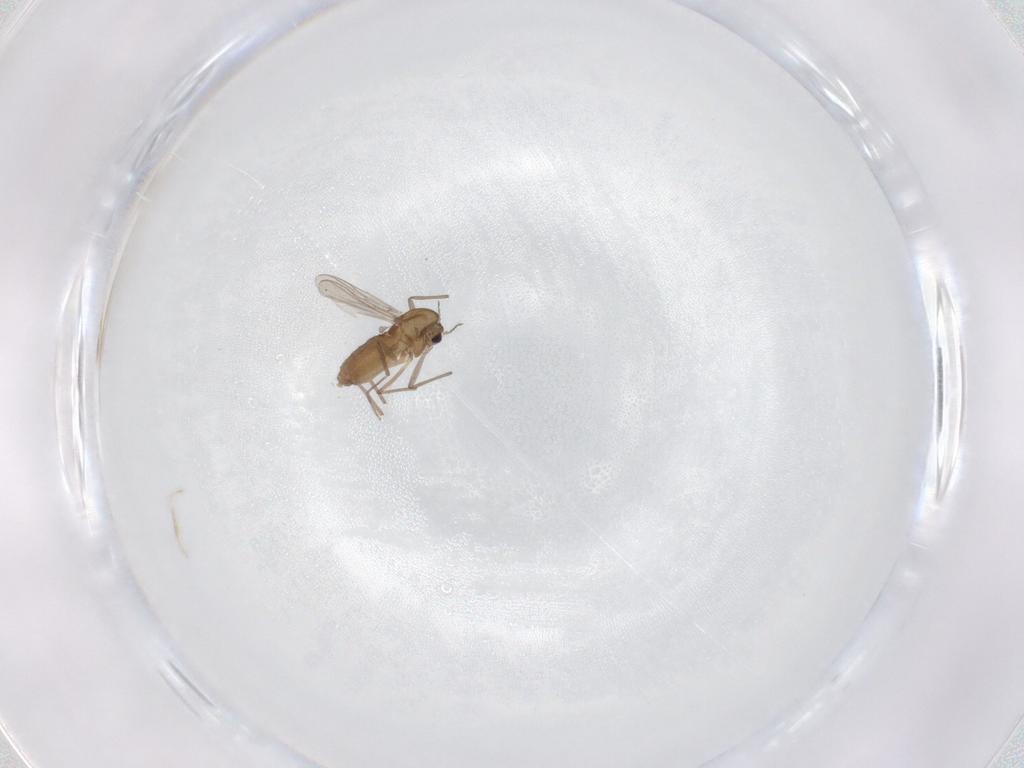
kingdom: Animalia
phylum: Arthropoda
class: Insecta
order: Diptera
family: Chironomidae
